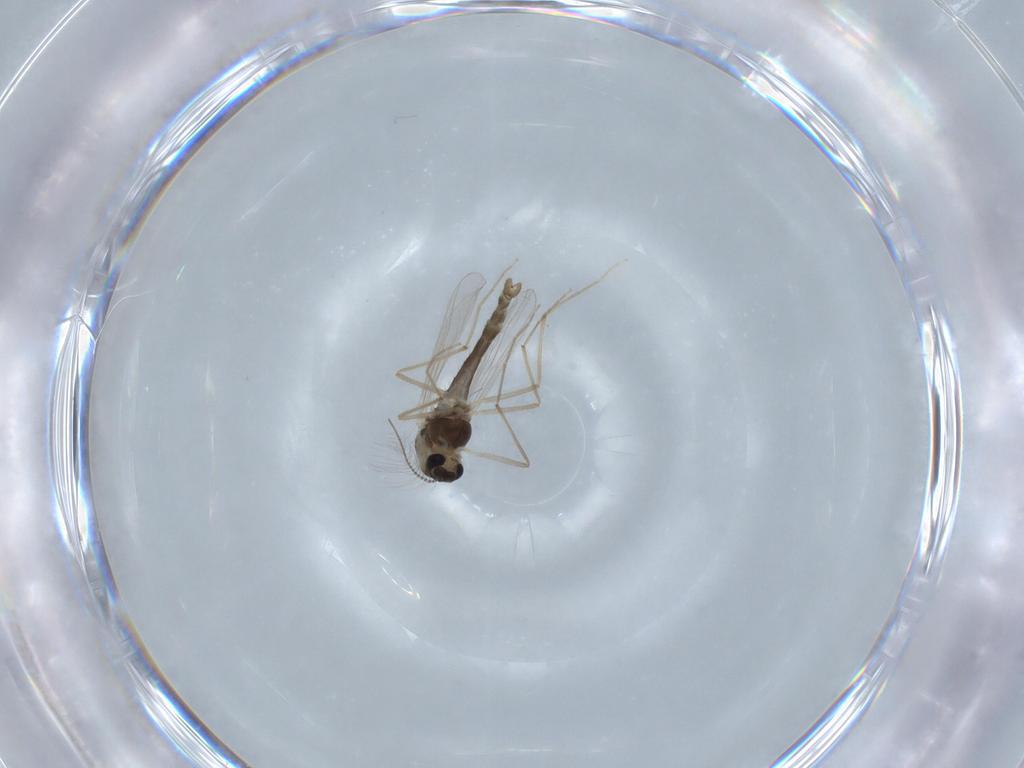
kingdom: Animalia
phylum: Arthropoda
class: Insecta
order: Diptera
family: Chironomidae
